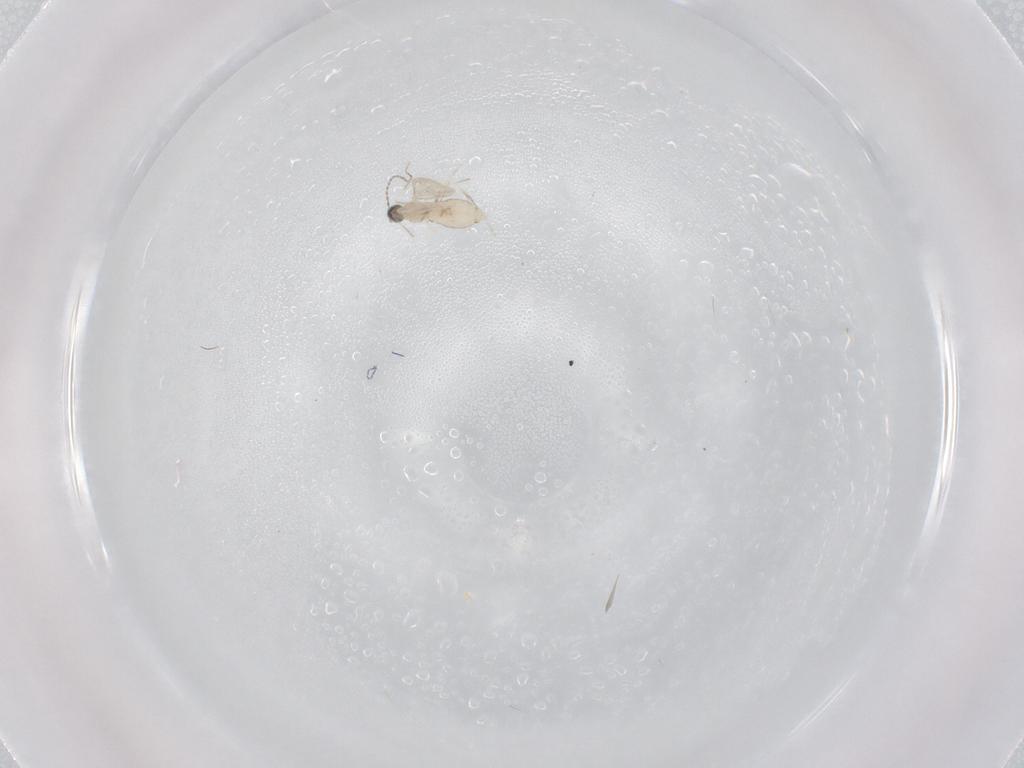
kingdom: Animalia
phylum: Arthropoda
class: Insecta
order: Diptera
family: Cecidomyiidae
